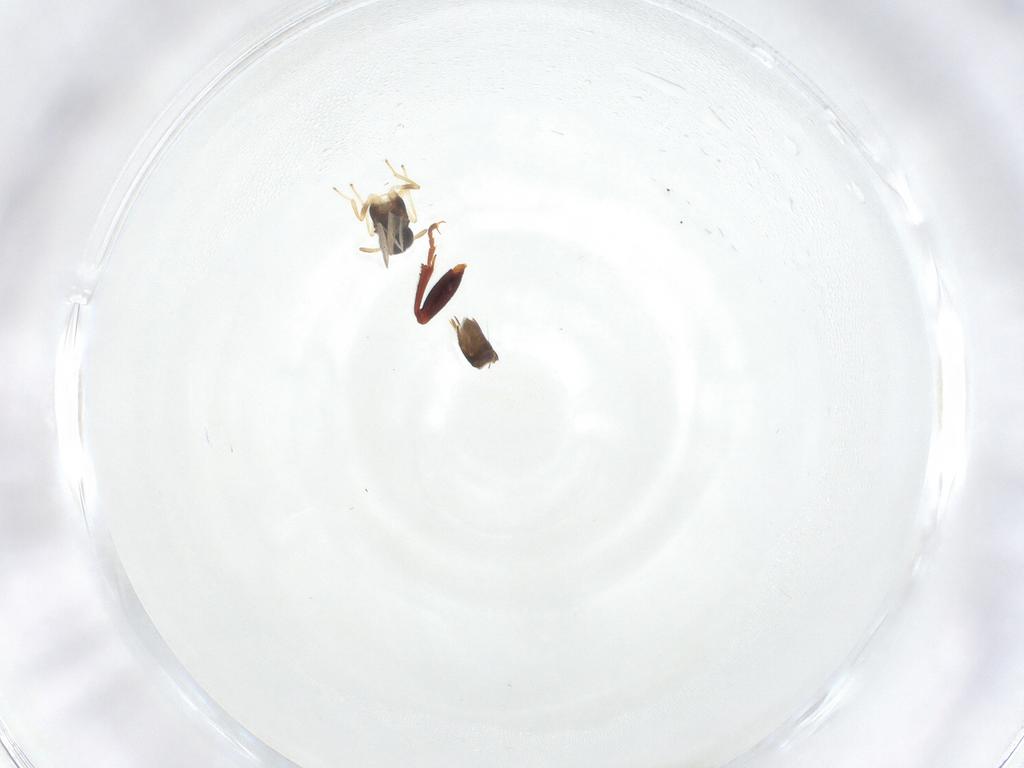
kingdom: Animalia
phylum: Arthropoda
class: Insecta
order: Hymenoptera
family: Encyrtidae
